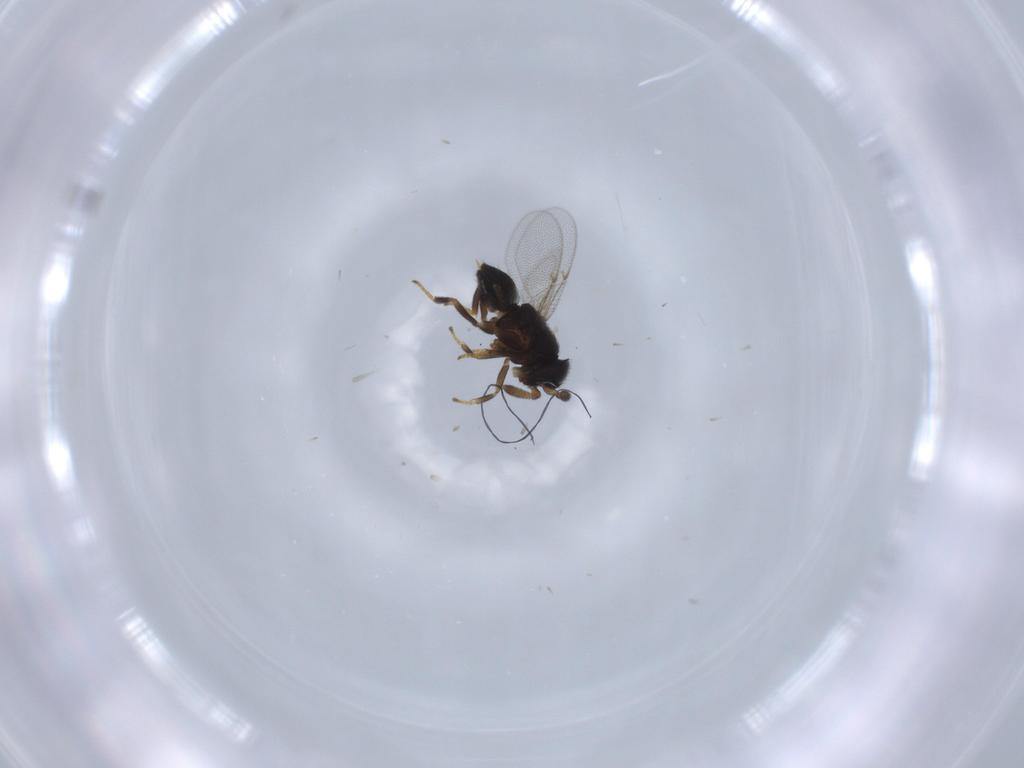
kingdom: Animalia
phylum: Arthropoda
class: Insecta
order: Hymenoptera
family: Encyrtidae
